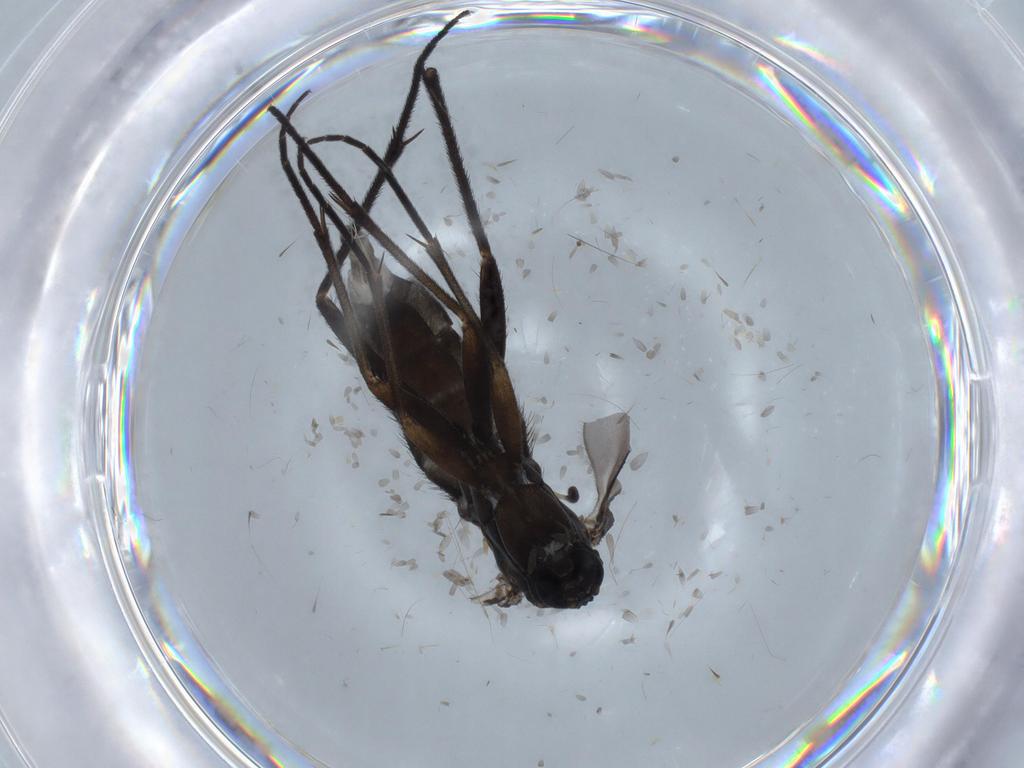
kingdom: Animalia
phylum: Arthropoda
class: Insecta
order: Diptera
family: Sciaridae
